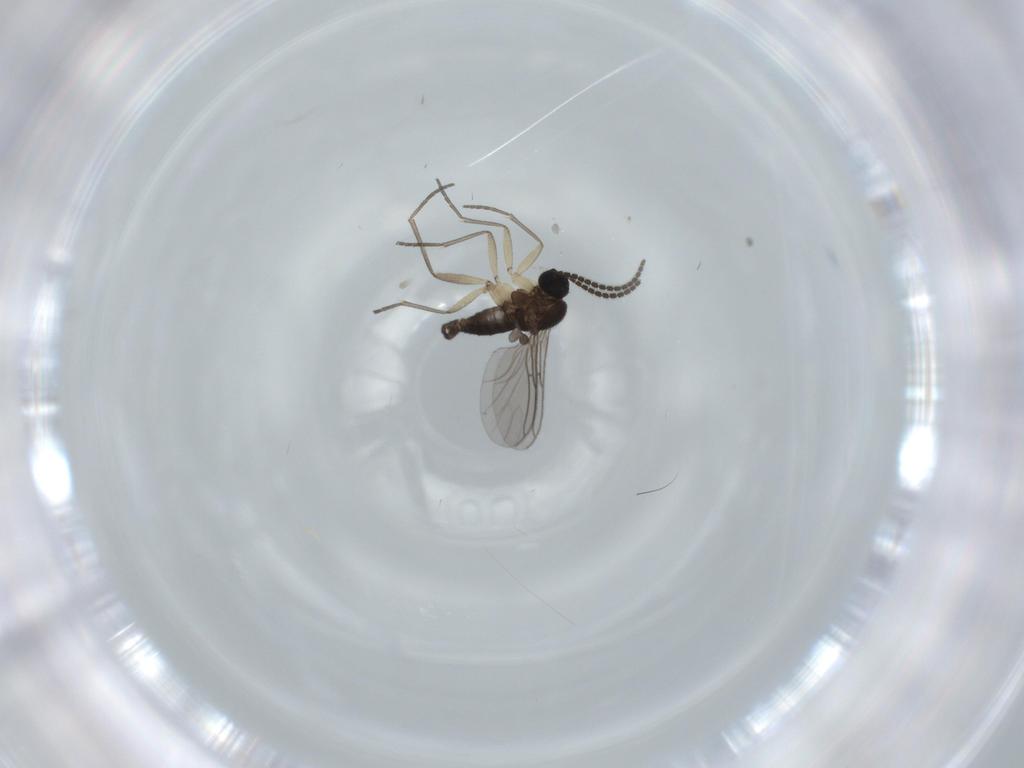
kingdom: Animalia
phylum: Arthropoda
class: Insecta
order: Diptera
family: Sciaridae
